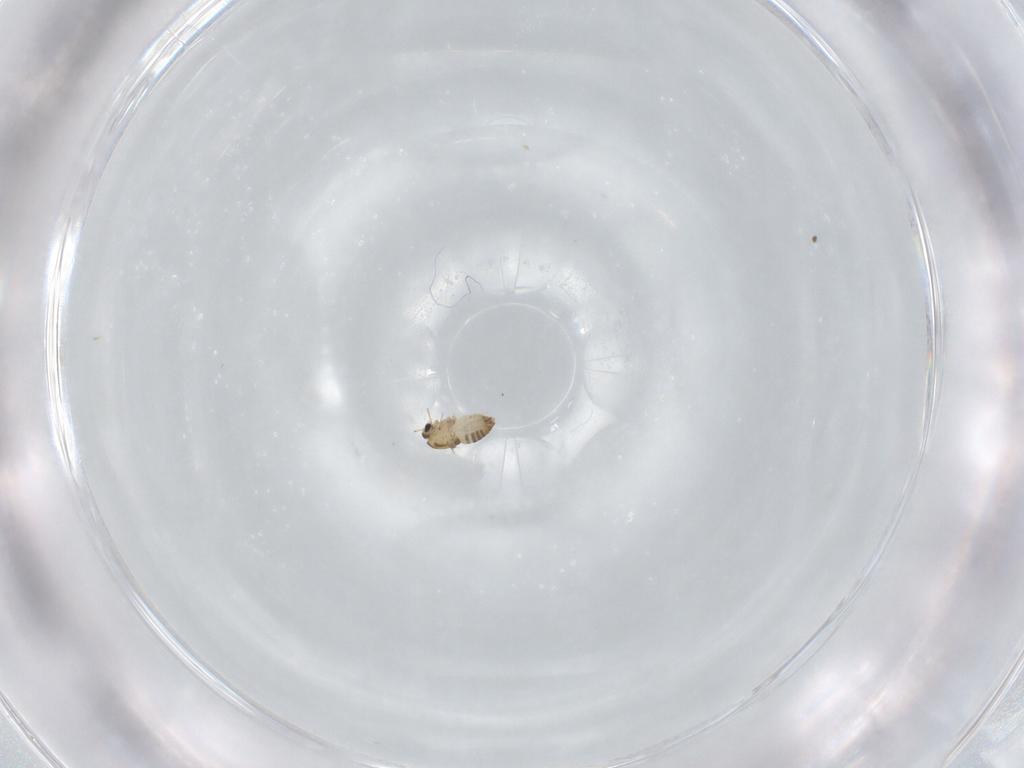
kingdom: Animalia
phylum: Arthropoda
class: Insecta
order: Diptera
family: Chironomidae
